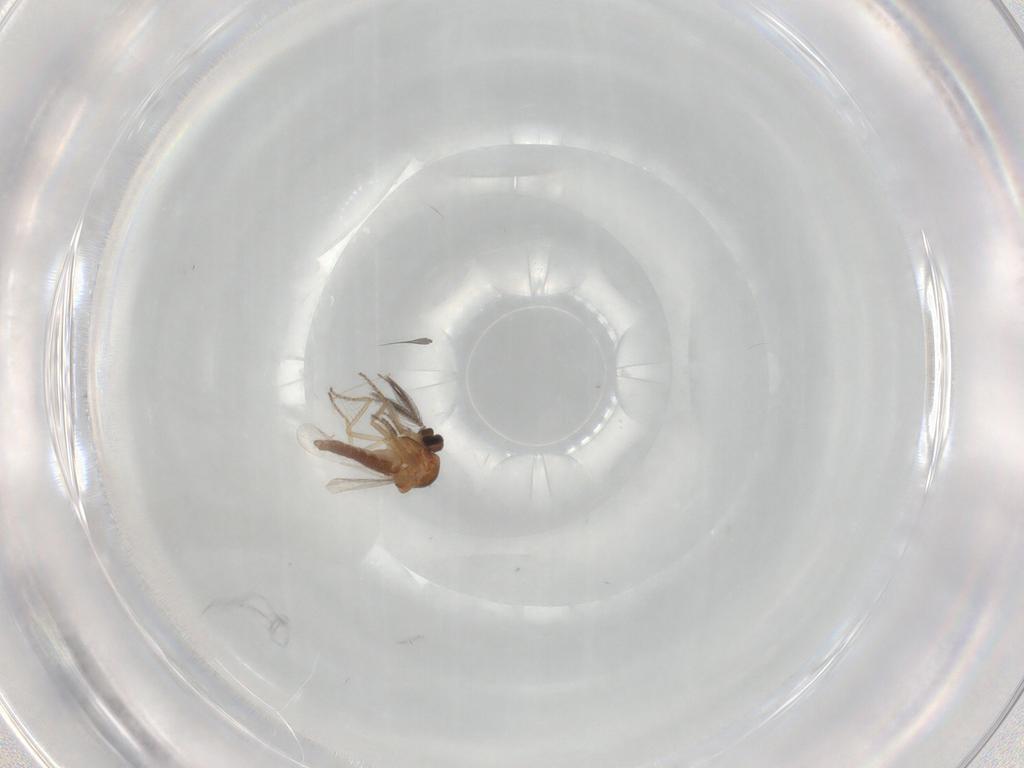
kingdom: Animalia
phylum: Arthropoda
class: Insecta
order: Diptera
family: Ceratopogonidae
